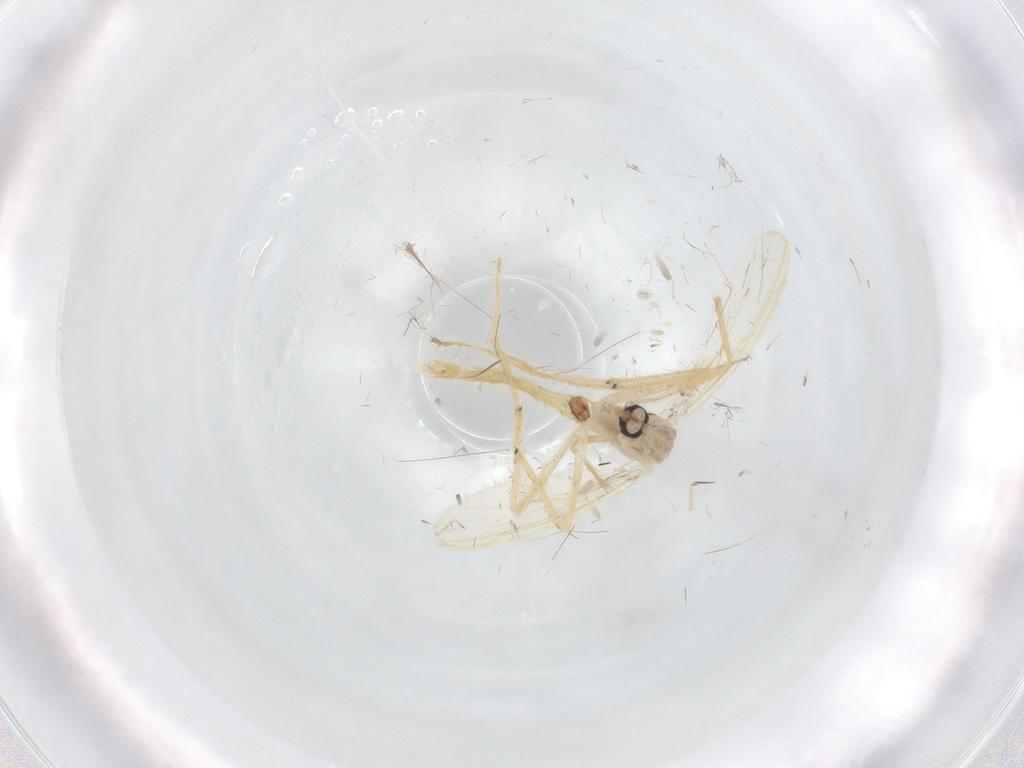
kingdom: Animalia
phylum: Arthropoda
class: Insecta
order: Diptera
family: Chironomidae
